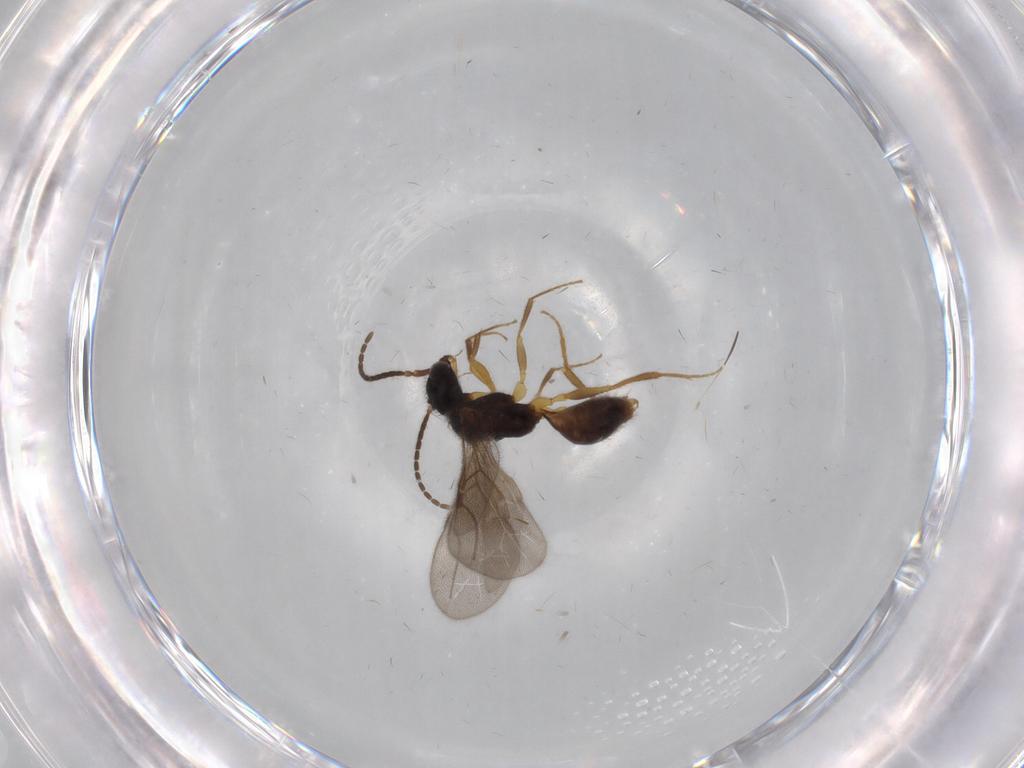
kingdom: Animalia
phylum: Arthropoda
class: Insecta
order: Hymenoptera
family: Bethylidae
